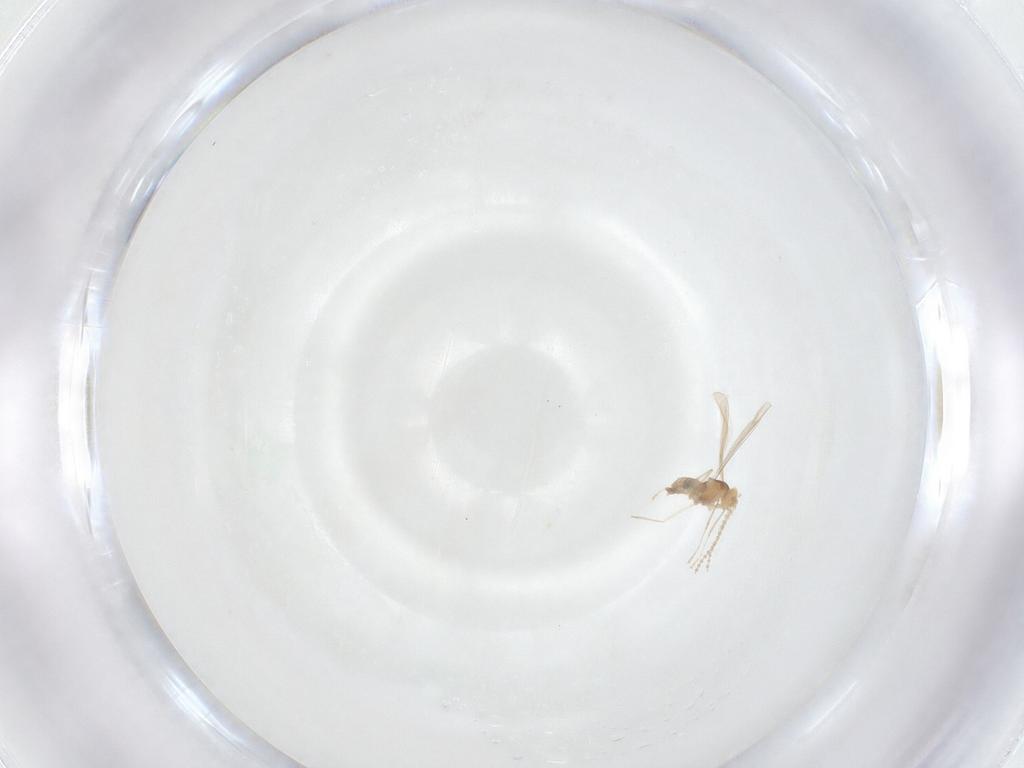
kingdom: Animalia
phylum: Arthropoda
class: Insecta
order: Diptera
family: Cecidomyiidae
